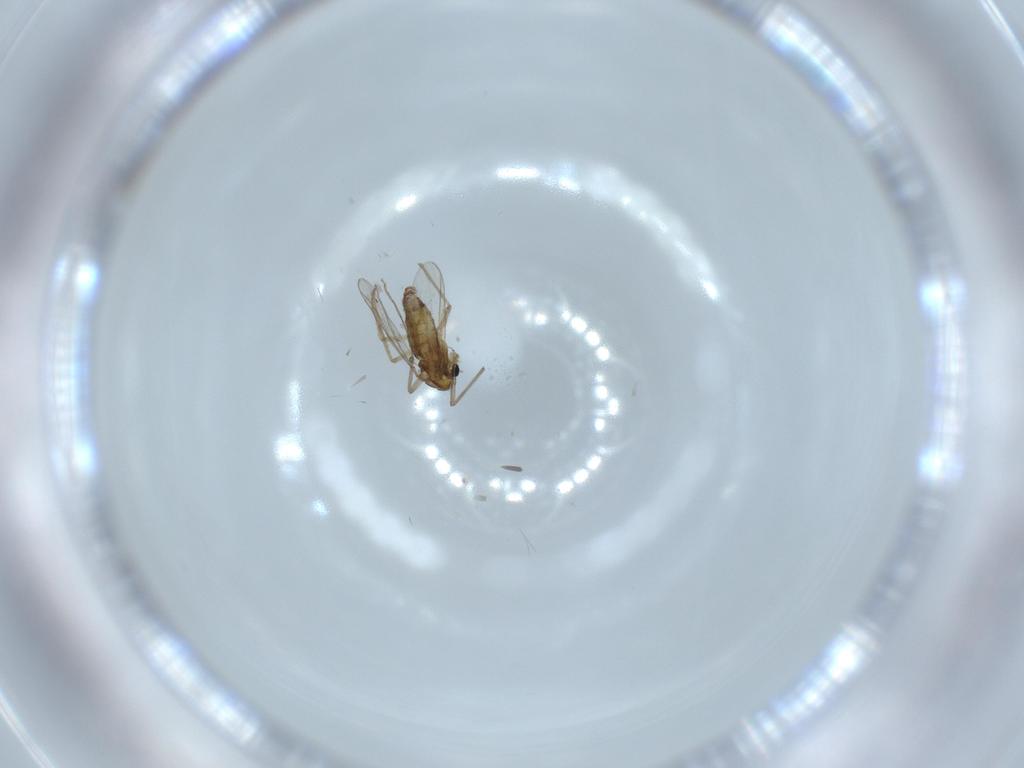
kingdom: Animalia
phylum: Arthropoda
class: Insecta
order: Diptera
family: Chironomidae
